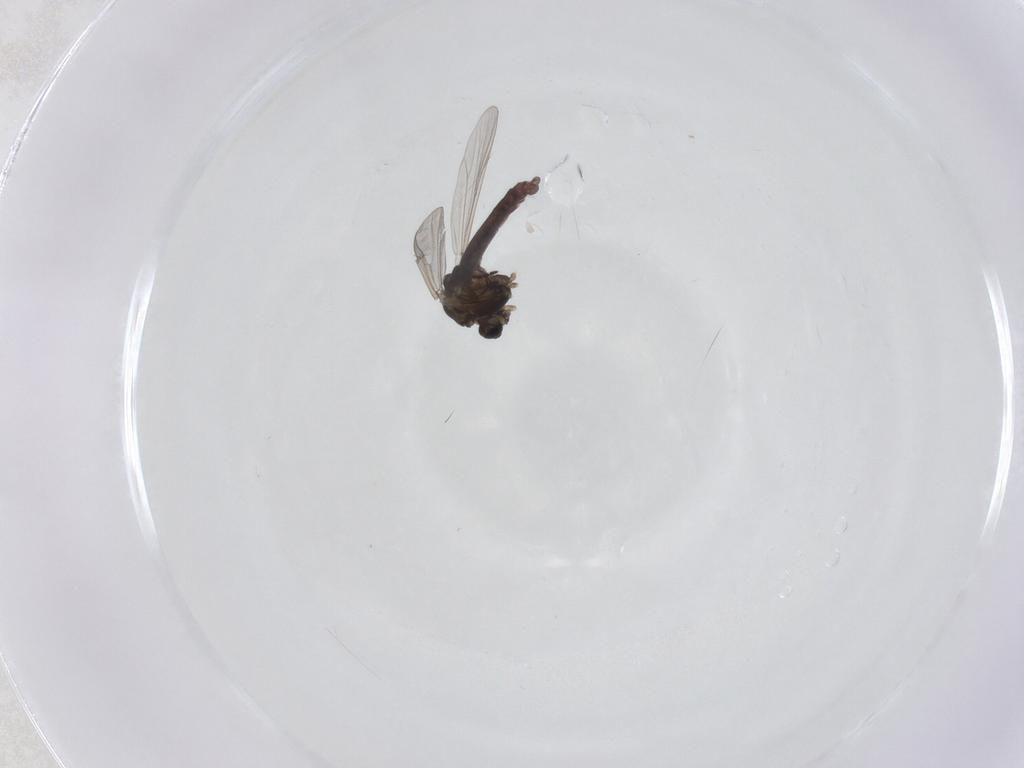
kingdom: Animalia
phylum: Arthropoda
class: Insecta
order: Diptera
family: Chironomidae
